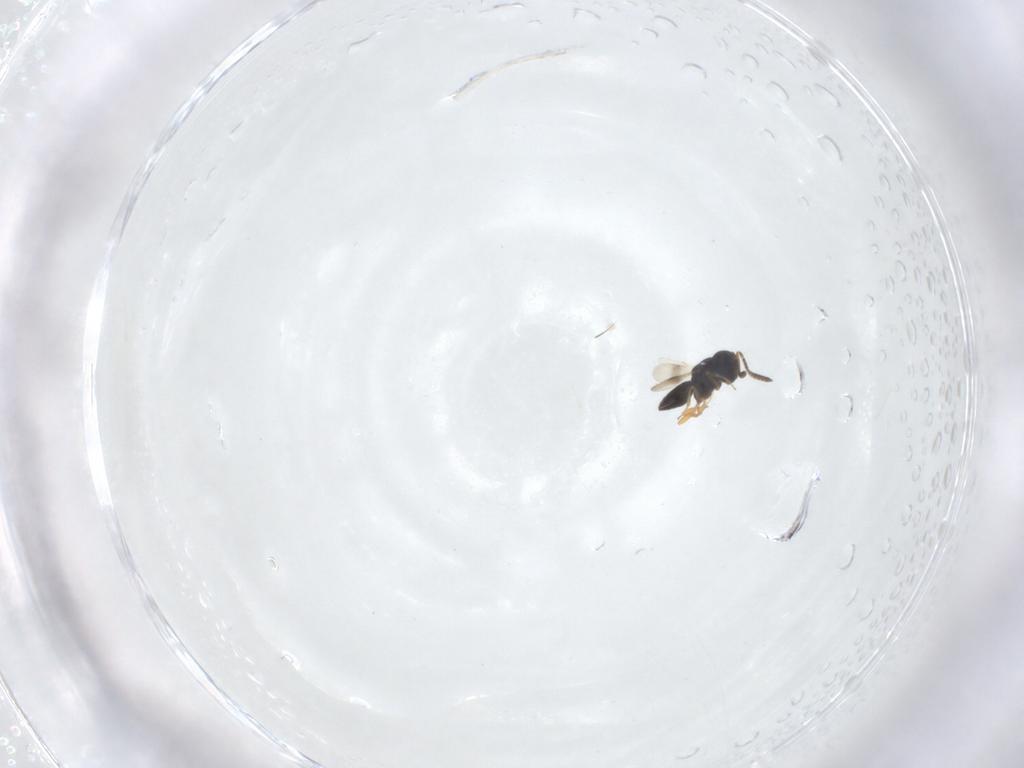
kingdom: Animalia
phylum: Arthropoda
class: Insecta
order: Hymenoptera
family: Scelionidae
